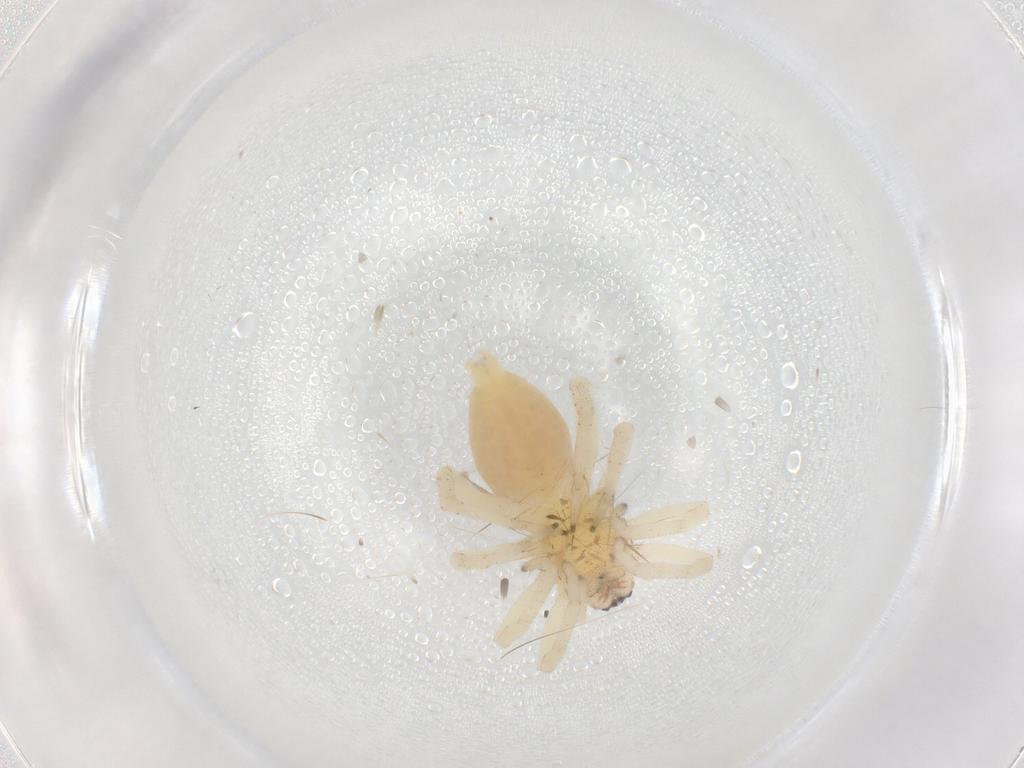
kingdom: Animalia
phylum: Arthropoda
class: Arachnida
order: Araneae
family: Clubionidae
